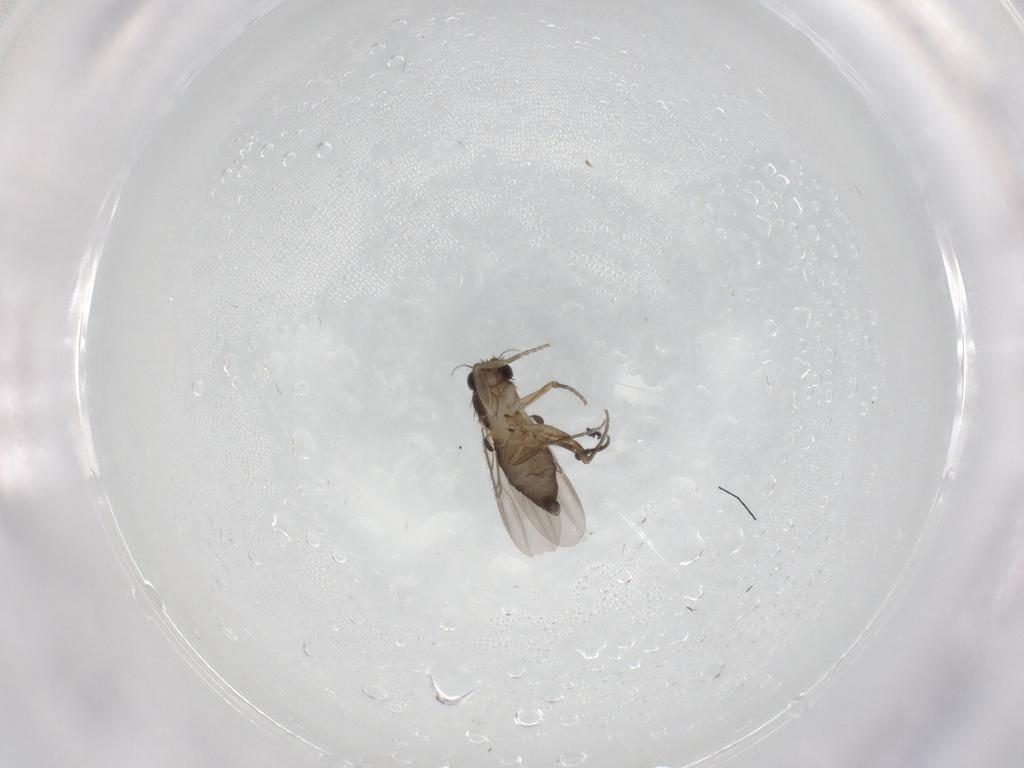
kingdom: Animalia
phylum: Arthropoda
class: Insecta
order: Diptera
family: Phoridae
